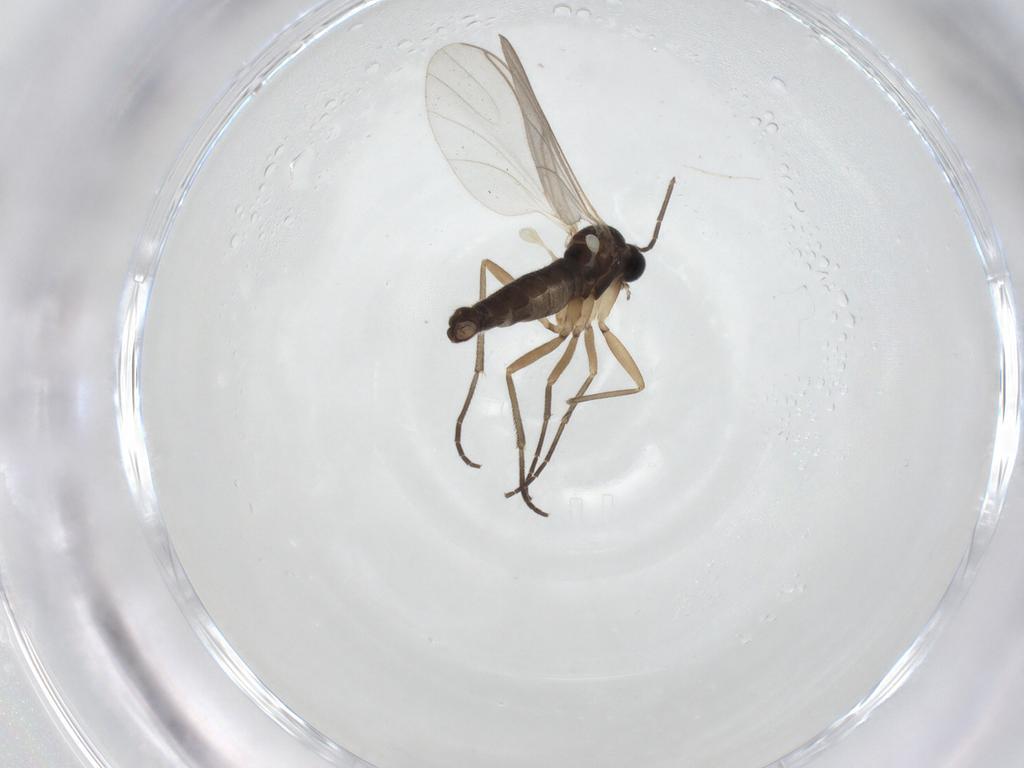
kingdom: Animalia
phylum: Arthropoda
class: Insecta
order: Diptera
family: Sciaridae
